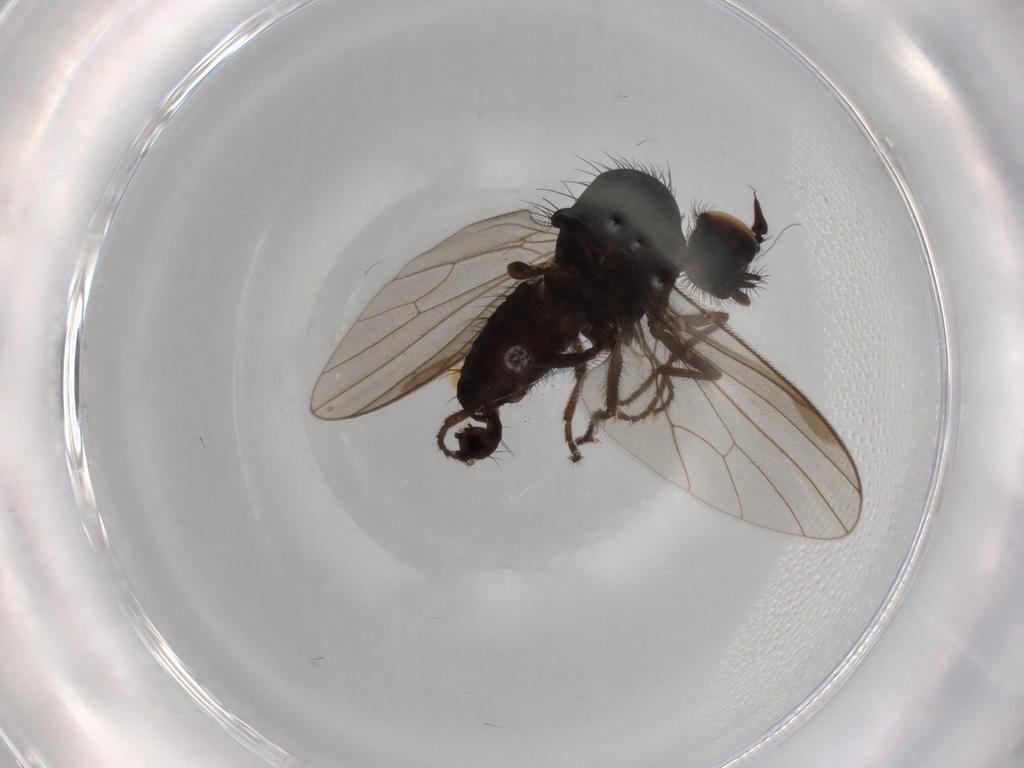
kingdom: Animalia
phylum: Arthropoda
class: Insecta
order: Diptera
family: Dolichopodidae
